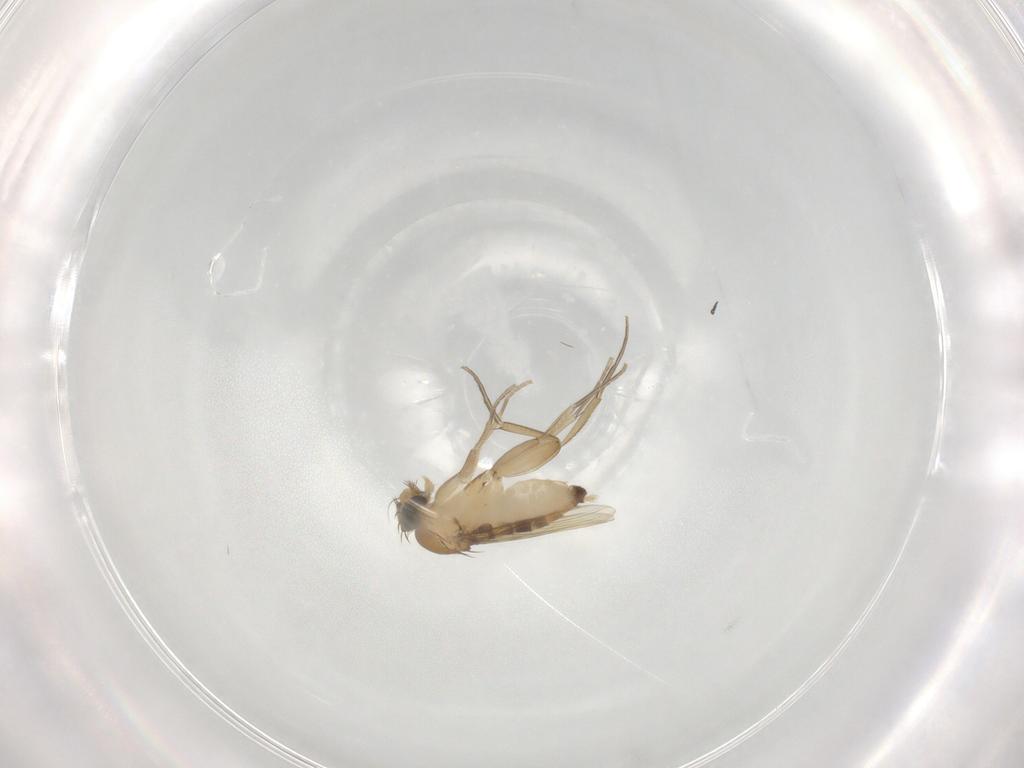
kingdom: Animalia
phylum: Arthropoda
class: Insecta
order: Diptera
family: Phoridae
